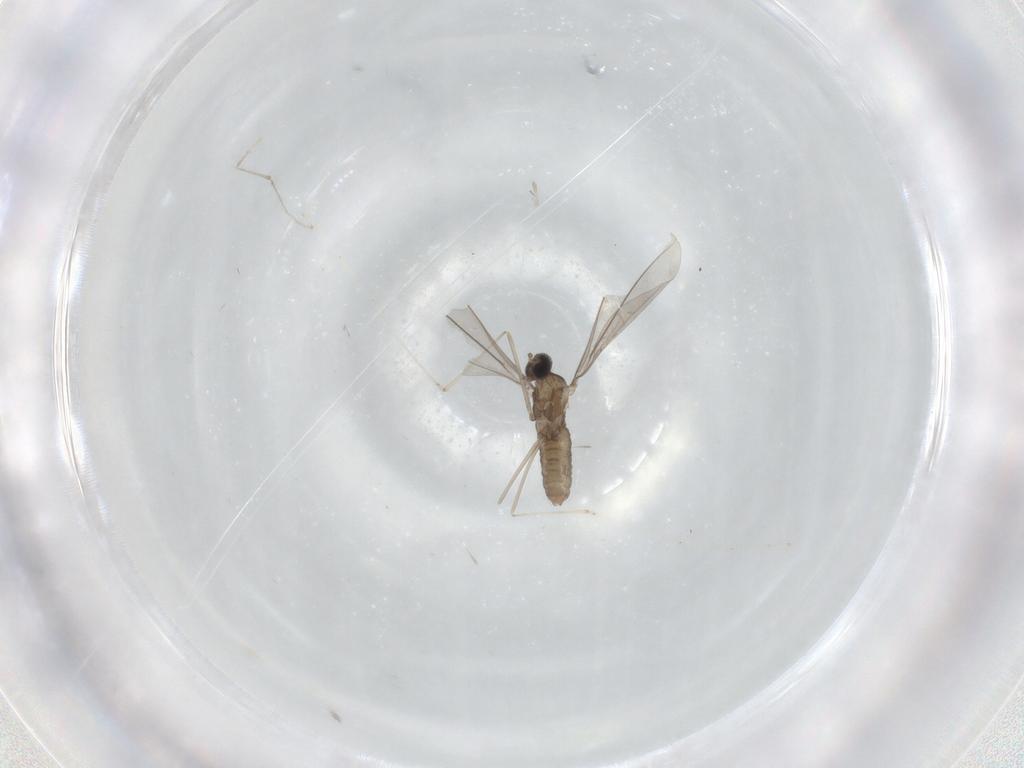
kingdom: Animalia
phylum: Arthropoda
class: Insecta
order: Diptera
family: Cecidomyiidae
